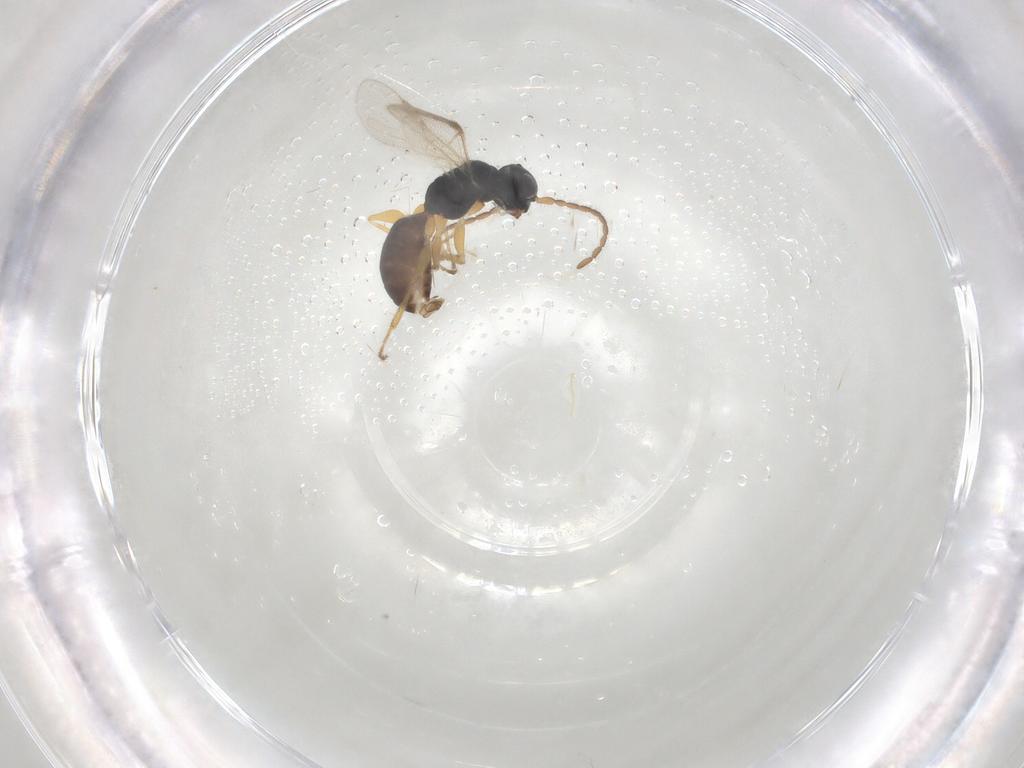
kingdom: Animalia
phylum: Arthropoda
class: Insecta
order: Hymenoptera
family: Dryinidae
